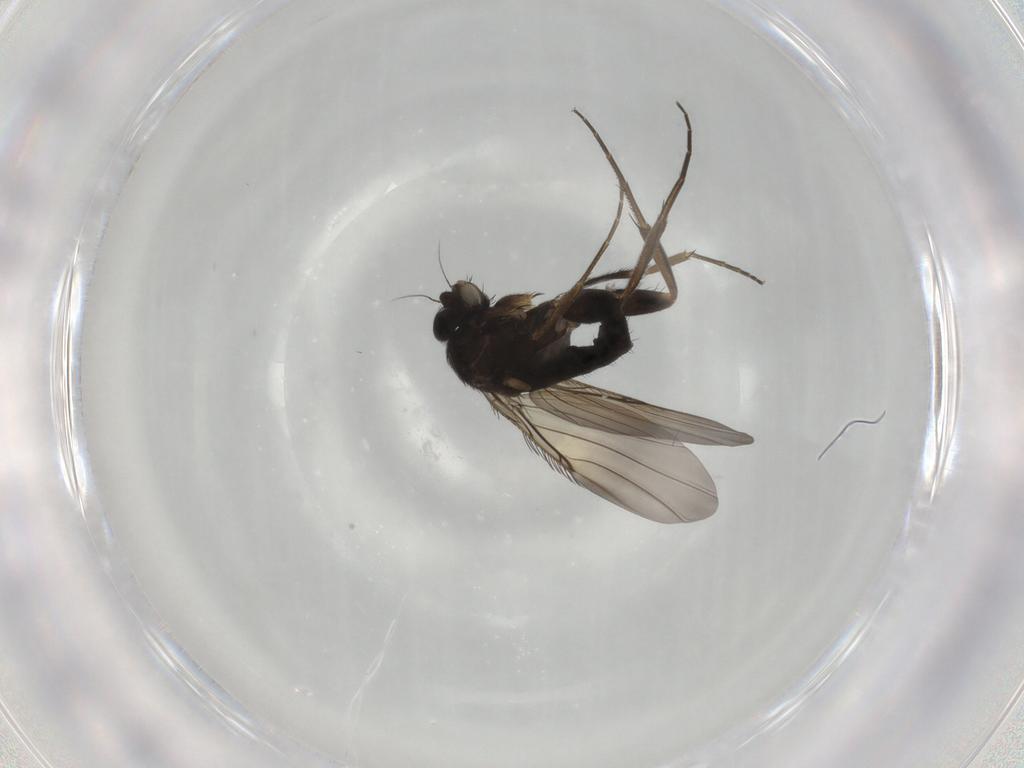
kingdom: Animalia
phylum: Arthropoda
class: Insecta
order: Diptera
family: Phoridae
